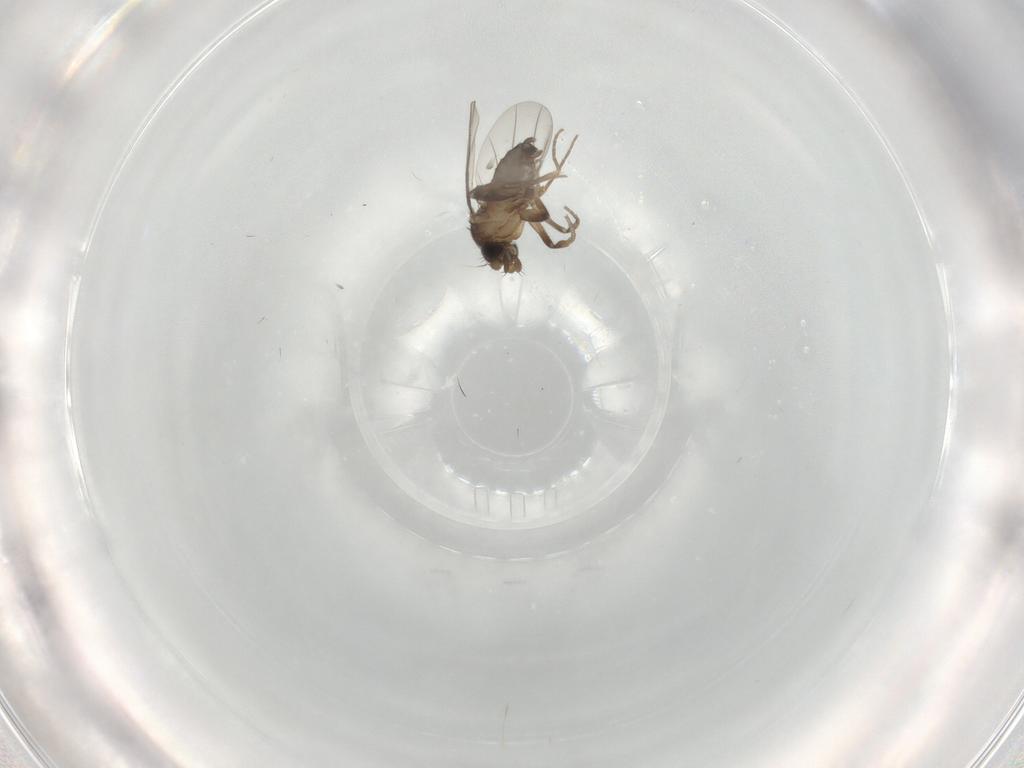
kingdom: Animalia
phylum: Arthropoda
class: Insecta
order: Diptera
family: Phoridae
